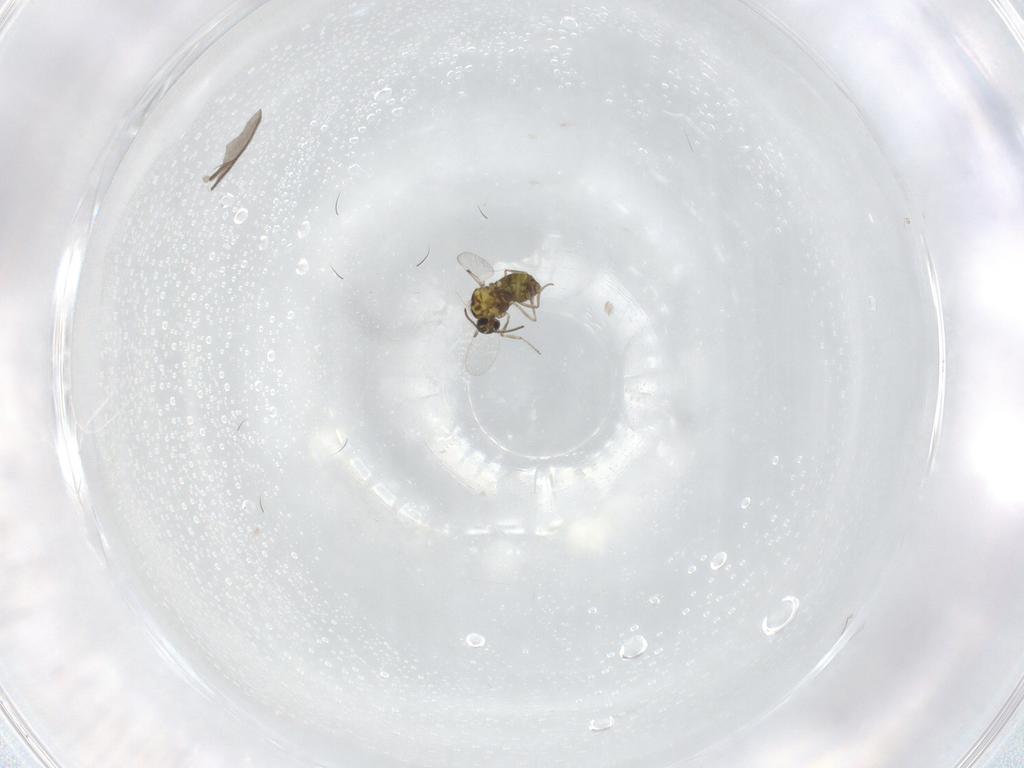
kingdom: Animalia
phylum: Arthropoda
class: Insecta
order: Diptera
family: Ceratopogonidae
